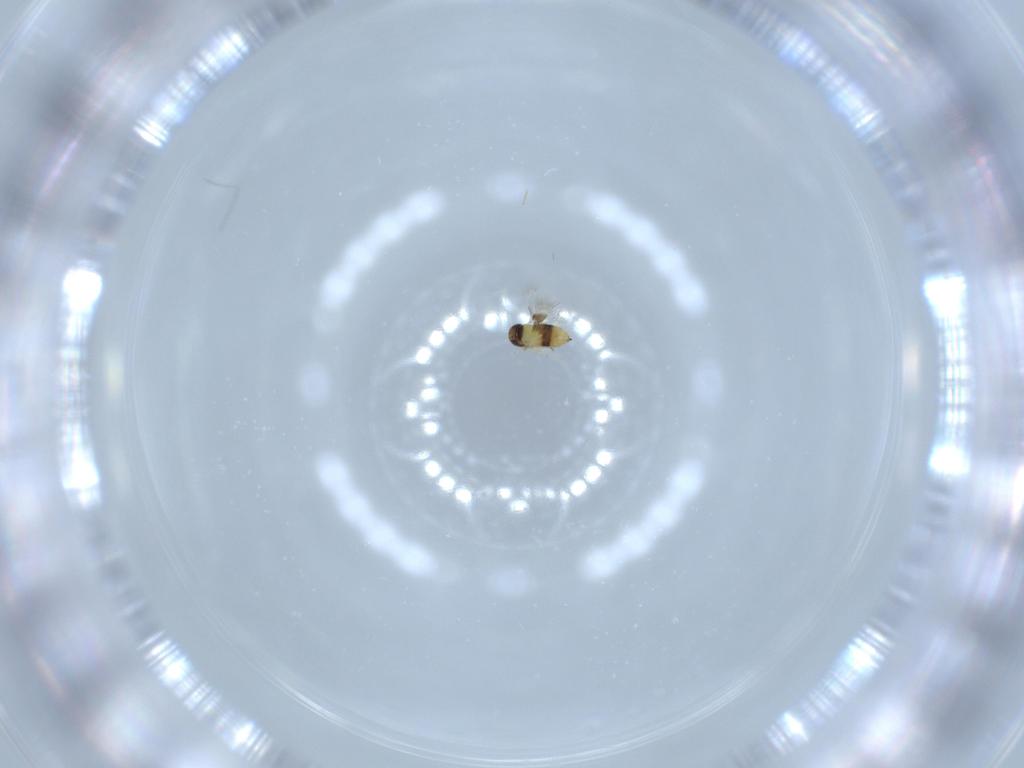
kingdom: Animalia
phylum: Arthropoda
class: Insecta
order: Hymenoptera
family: Signiphoridae
